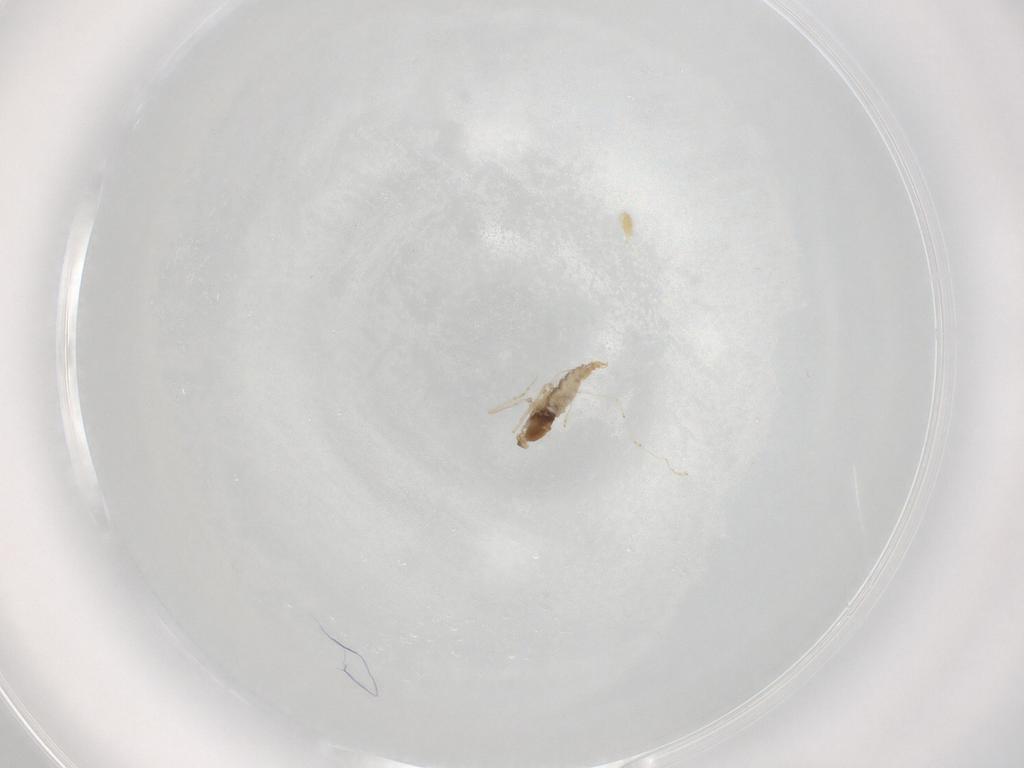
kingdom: Animalia
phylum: Arthropoda
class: Insecta
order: Diptera
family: Cecidomyiidae
